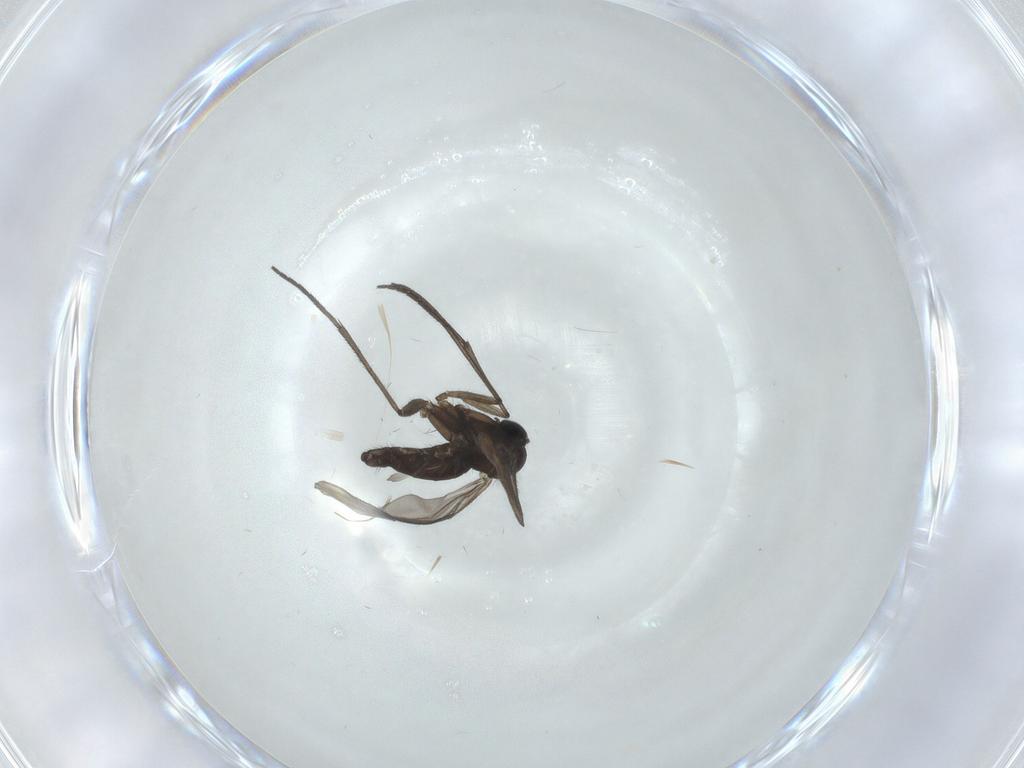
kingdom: Animalia
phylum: Arthropoda
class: Insecta
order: Diptera
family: Sciaridae
